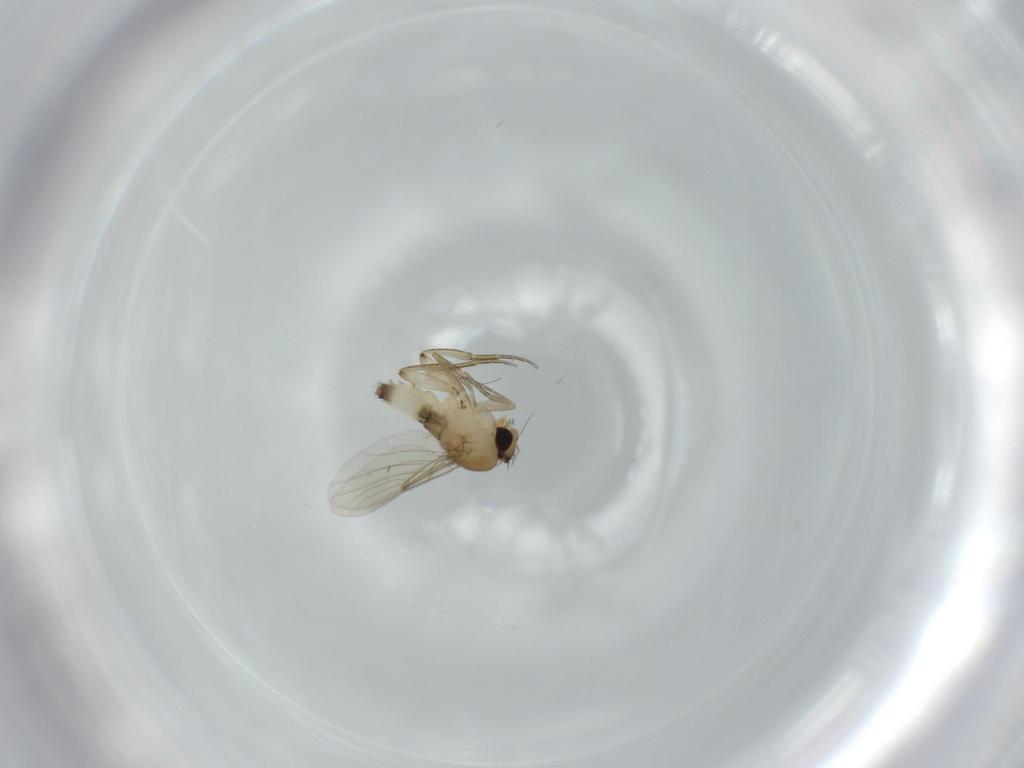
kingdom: Animalia
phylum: Arthropoda
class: Insecta
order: Diptera
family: Phoridae
